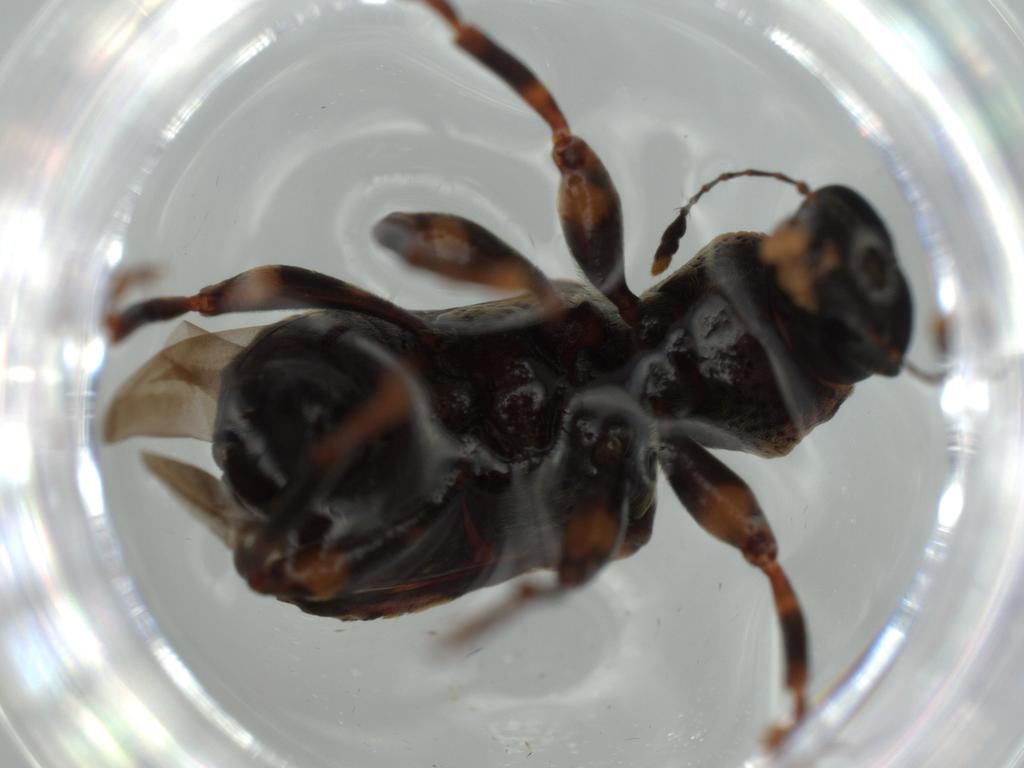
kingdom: Animalia
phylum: Arthropoda
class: Insecta
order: Coleoptera
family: Anthribidae
